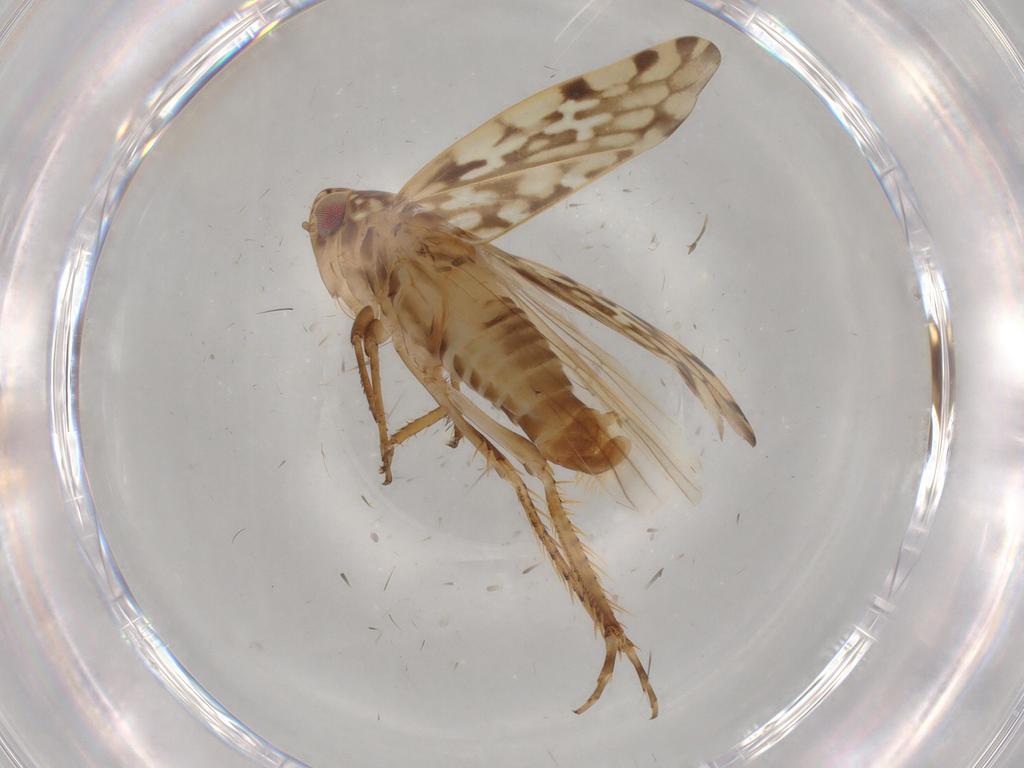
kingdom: Animalia
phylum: Arthropoda
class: Insecta
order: Hemiptera
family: Cicadellidae
